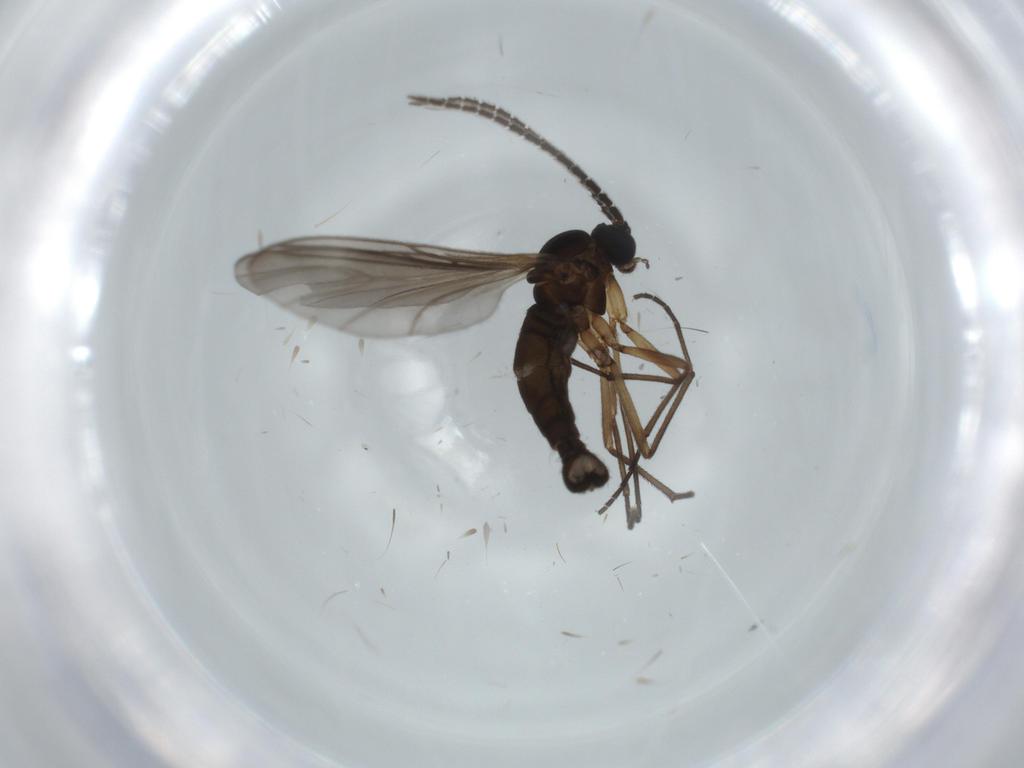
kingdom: Animalia
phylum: Arthropoda
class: Insecta
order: Diptera
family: Sciaridae
